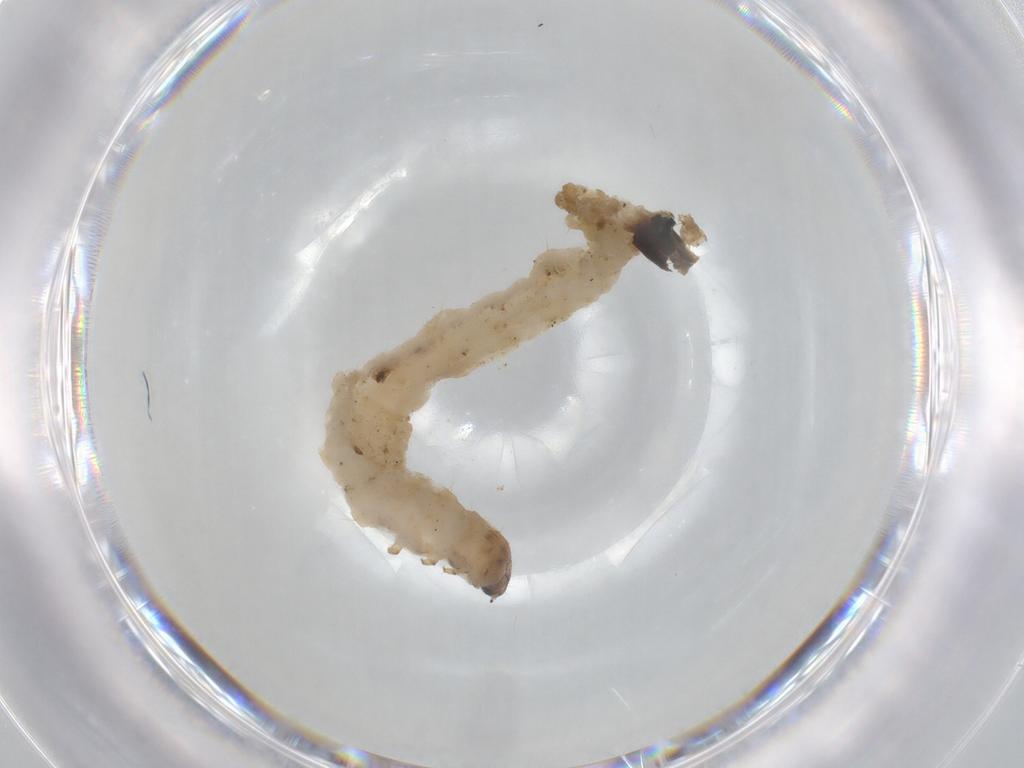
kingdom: Animalia
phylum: Arthropoda
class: Insecta
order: Coleoptera
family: Chrysomelidae
